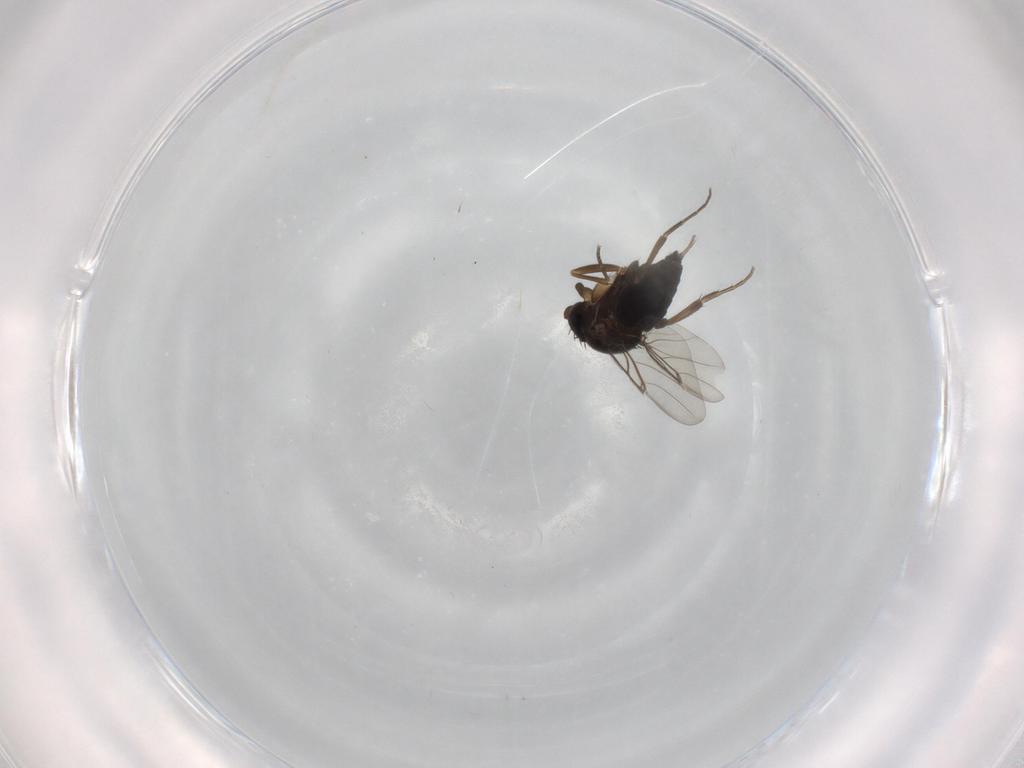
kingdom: Animalia
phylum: Arthropoda
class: Insecta
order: Diptera
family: Phoridae
